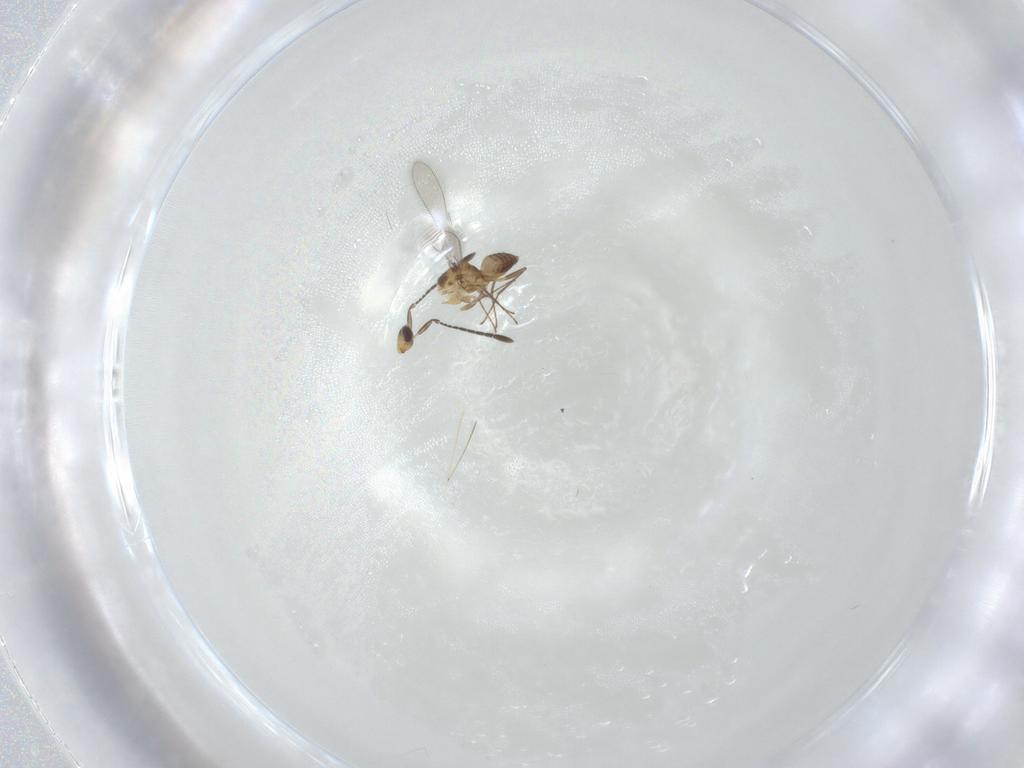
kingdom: Animalia
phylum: Arthropoda
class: Insecta
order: Hymenoptera
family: Mymaridae
